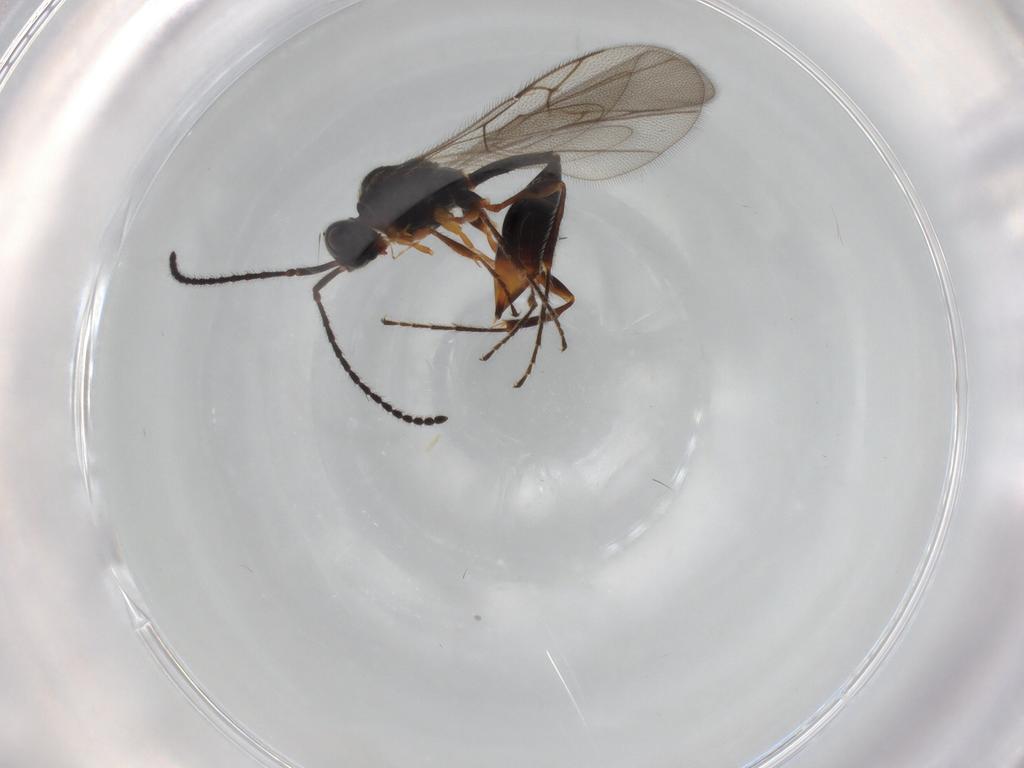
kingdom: Animalia
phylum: Arthropoda
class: Insecta
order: Hymenoptera
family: Diapriidae
